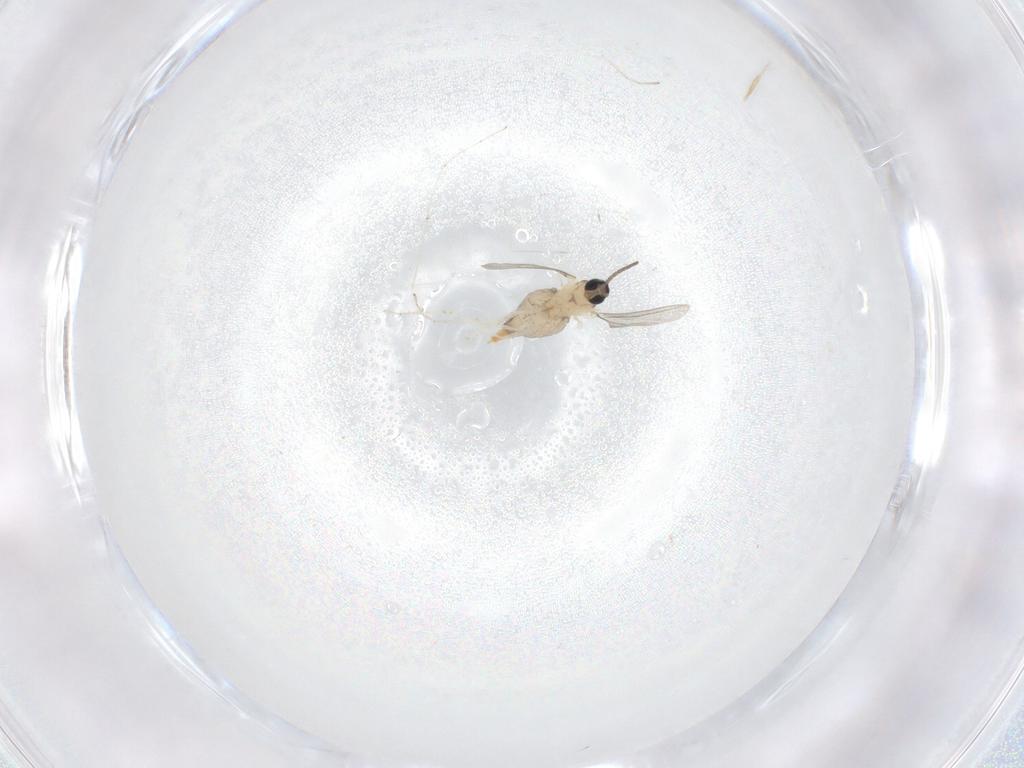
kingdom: Animalia
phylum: Arthropoda
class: Insecta
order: Diptera
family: Cecidomyiidae
